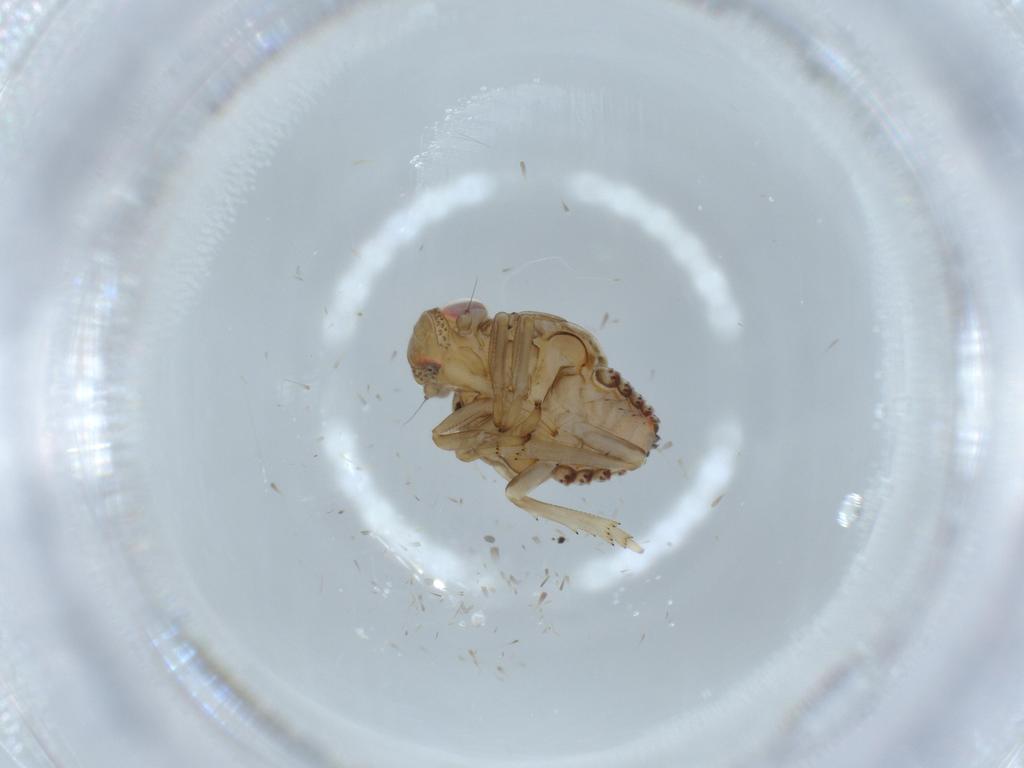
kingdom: Animalia
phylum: Arthropoda
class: Insecta
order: Hemiptera
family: Issidae
